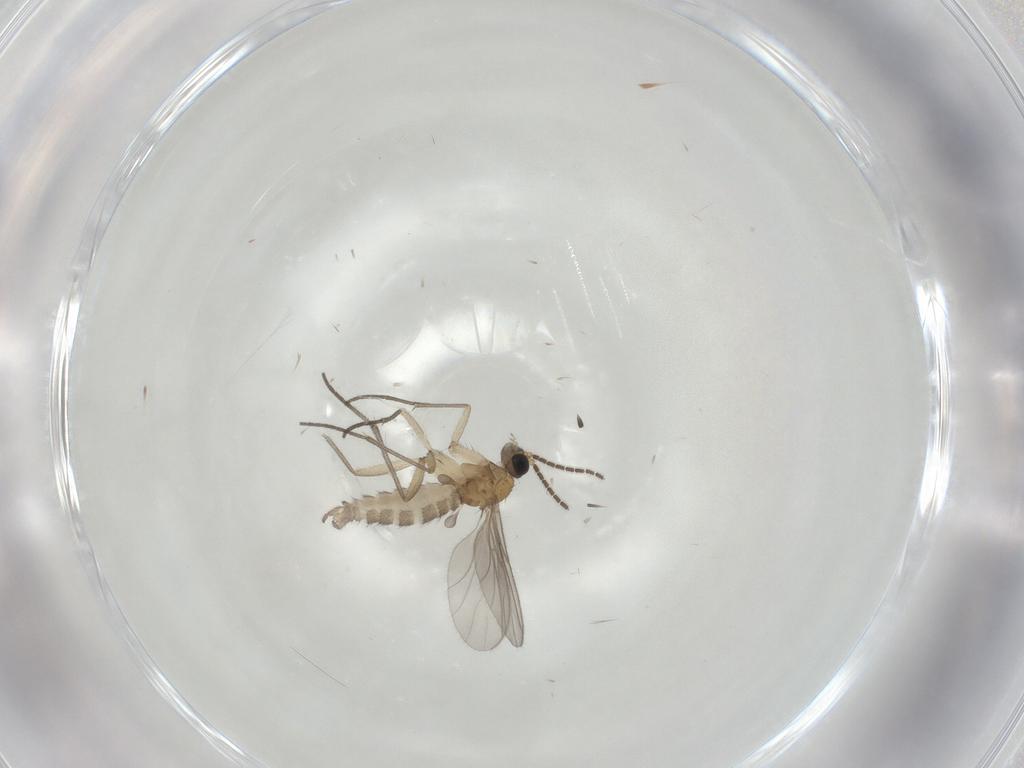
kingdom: Animalia
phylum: Arthropoda
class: Insecta
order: Diptera
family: Sciaridae
